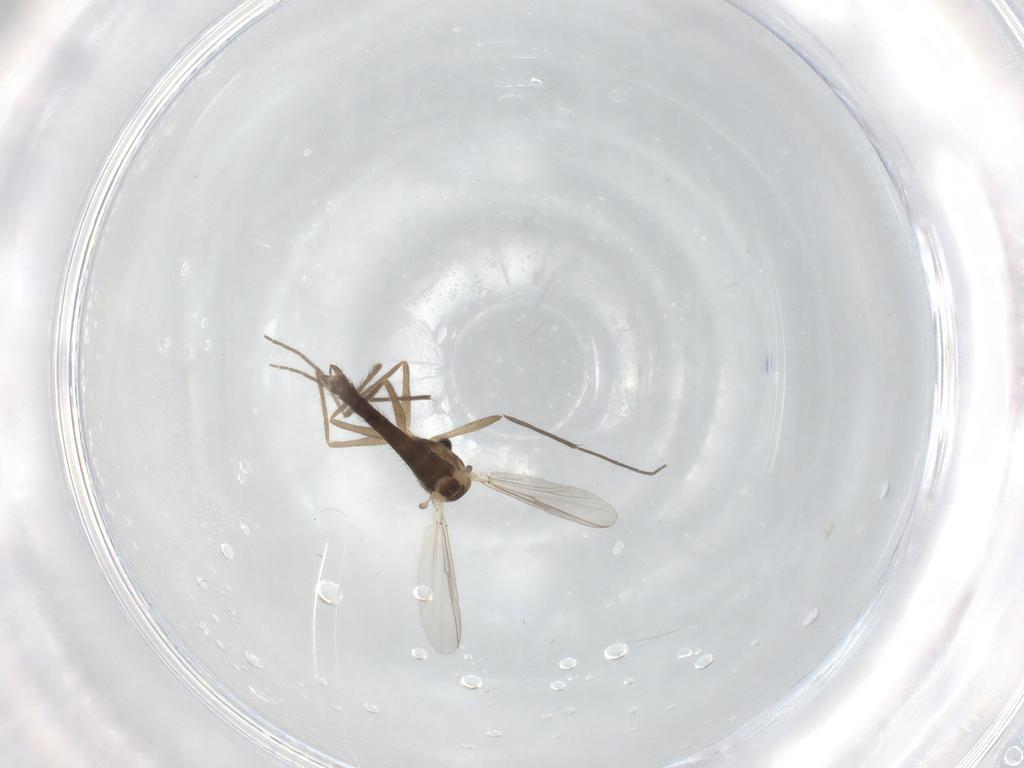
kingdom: Animalia
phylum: Arthropoda
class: Insecta
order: Diptera
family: Chironomidae
